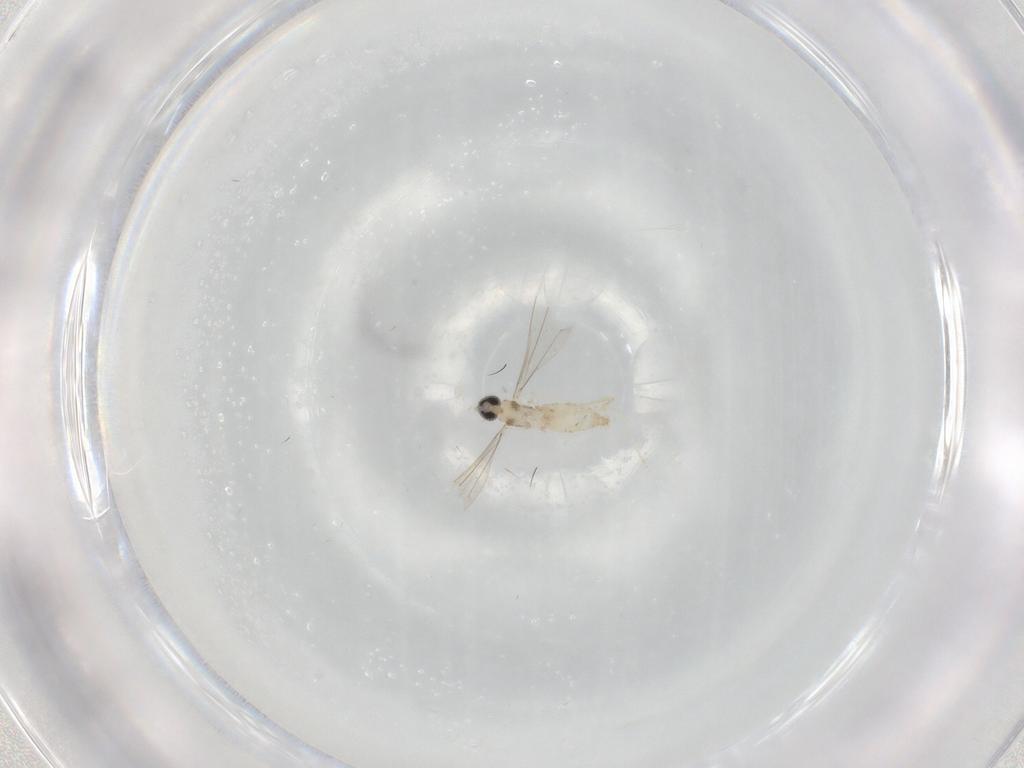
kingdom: Animalia
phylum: Arthropoda
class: Insecta
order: Diptera
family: Cecidomyiidae
